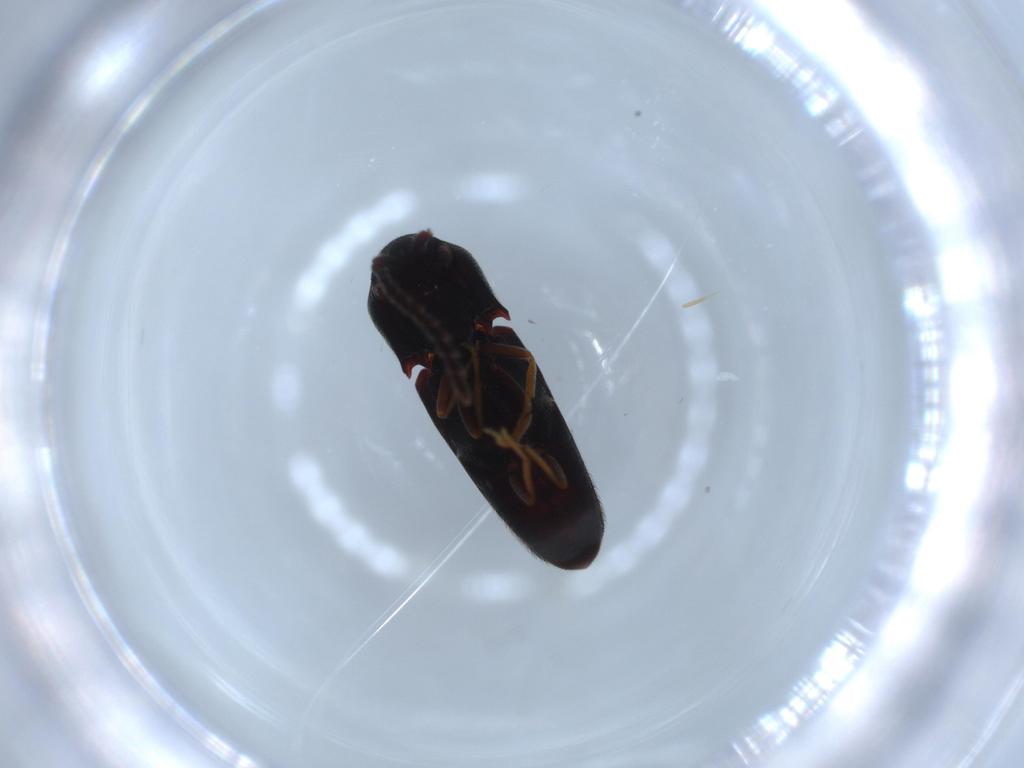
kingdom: Animalia
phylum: Arthropoda
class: Insecta
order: Coleoptera
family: Eucnemidae
